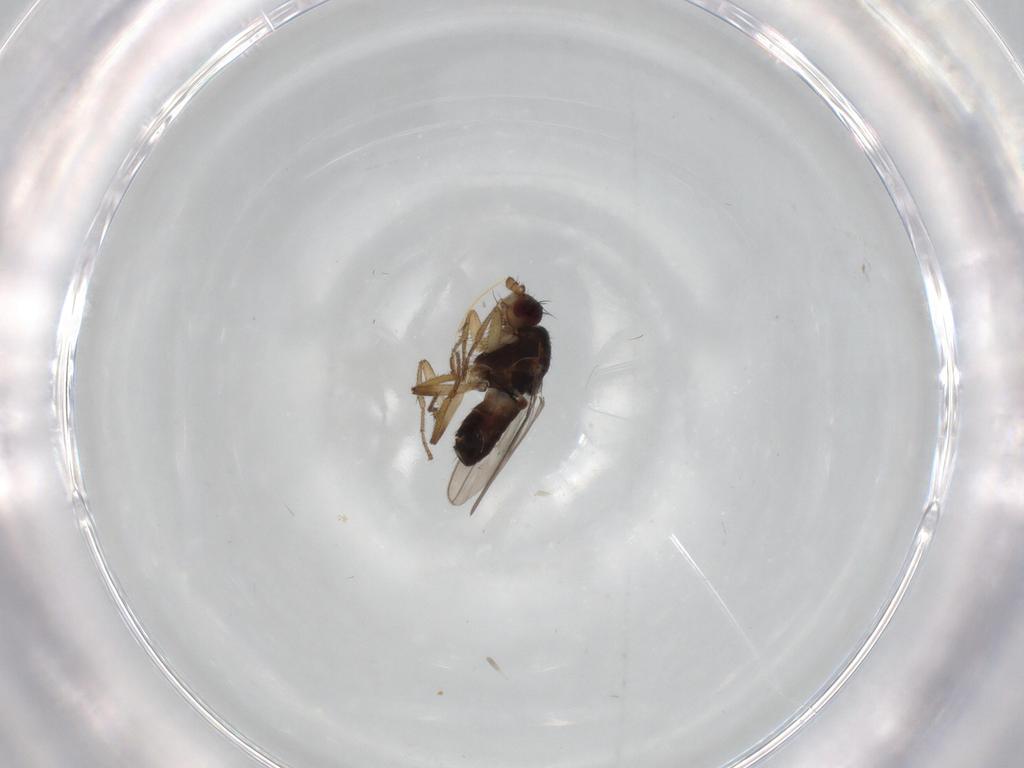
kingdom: Animalia
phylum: Arthropoda
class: Insecta
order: Diptera
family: Sphaeroceridae
